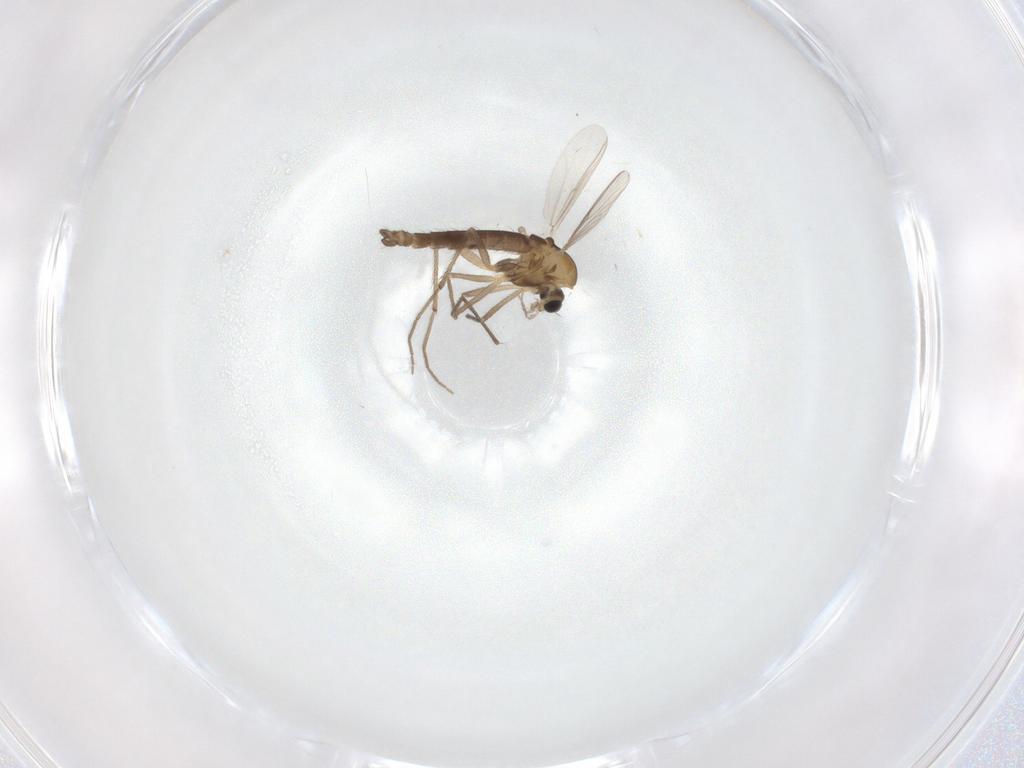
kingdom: Animalia
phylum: Arthropoda
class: Insecta
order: Diptera
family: Chironomidae
